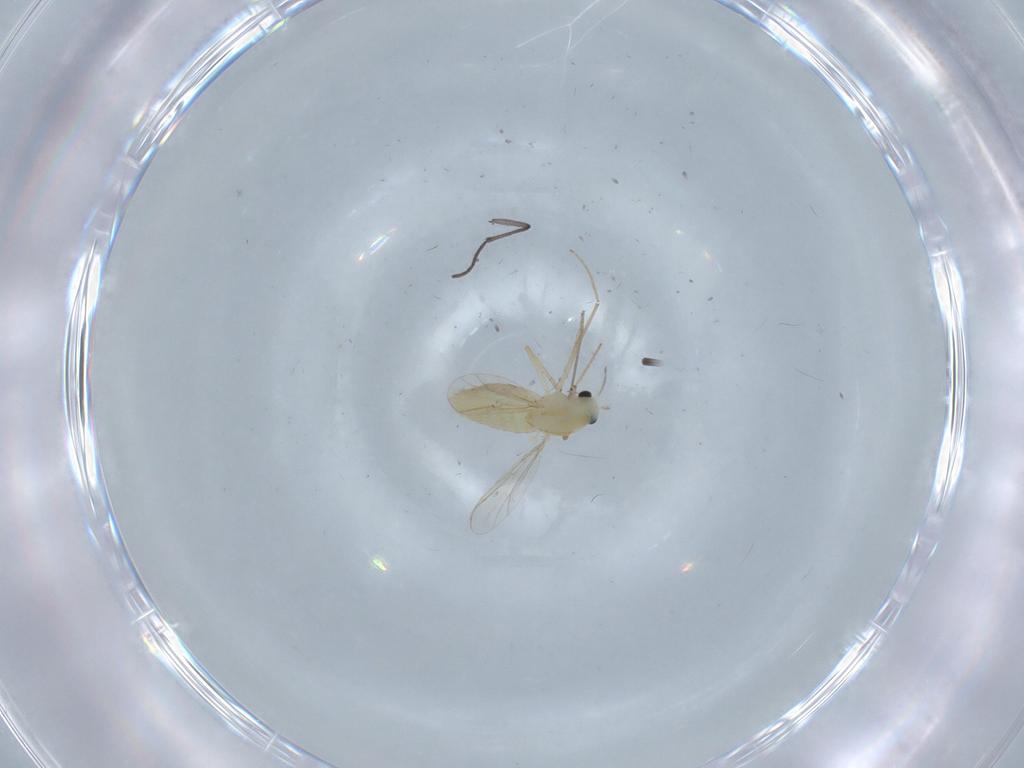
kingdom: Animalia
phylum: Arthropoda
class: Insecta
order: Diptera
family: Chironomidae
